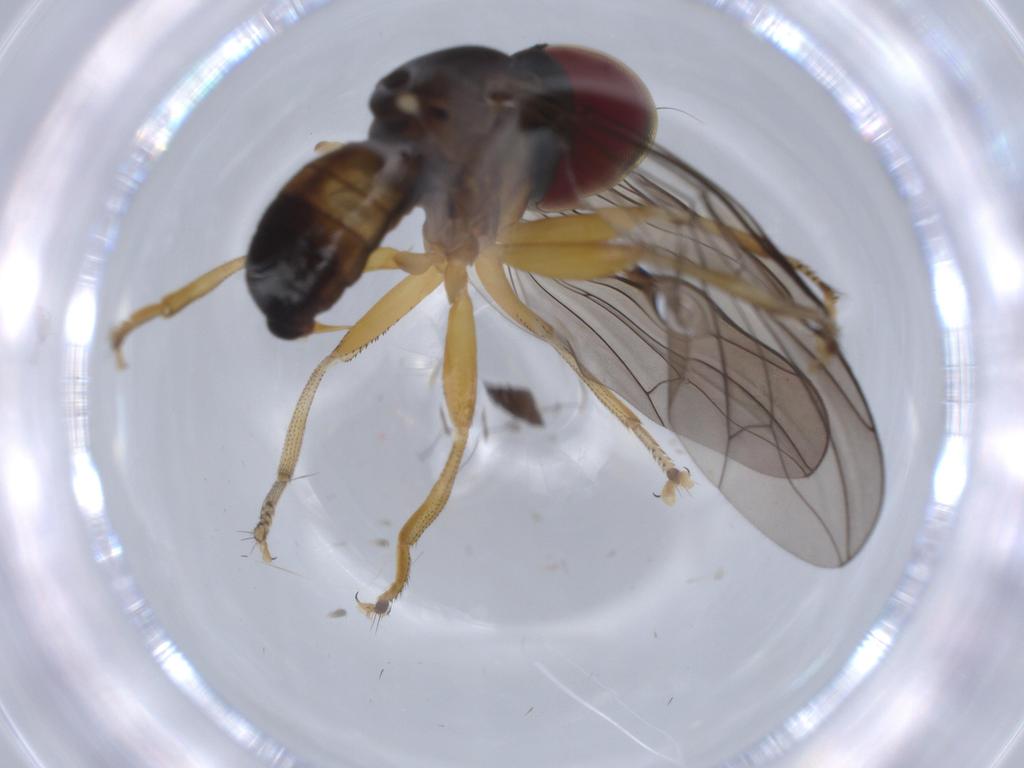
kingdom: Animalia
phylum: Arthropoda
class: Insecta
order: Diptera
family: Pipunculidae
